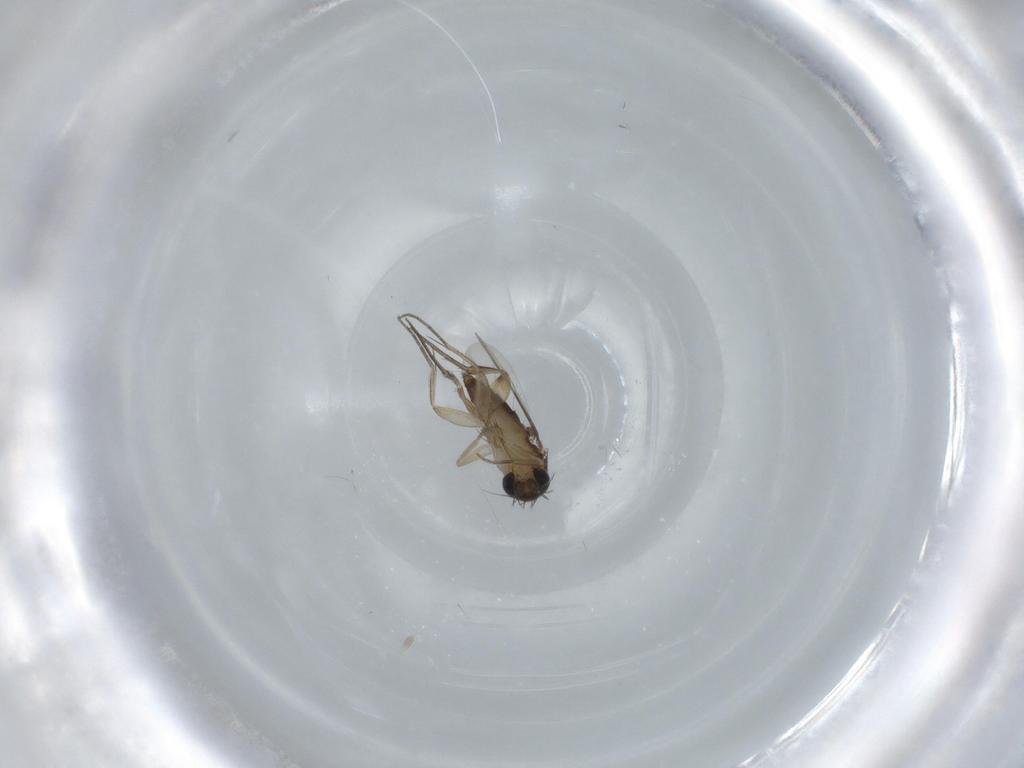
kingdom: Animalia
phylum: Arthropoda
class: Insecta
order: Diptera
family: Phoridae
